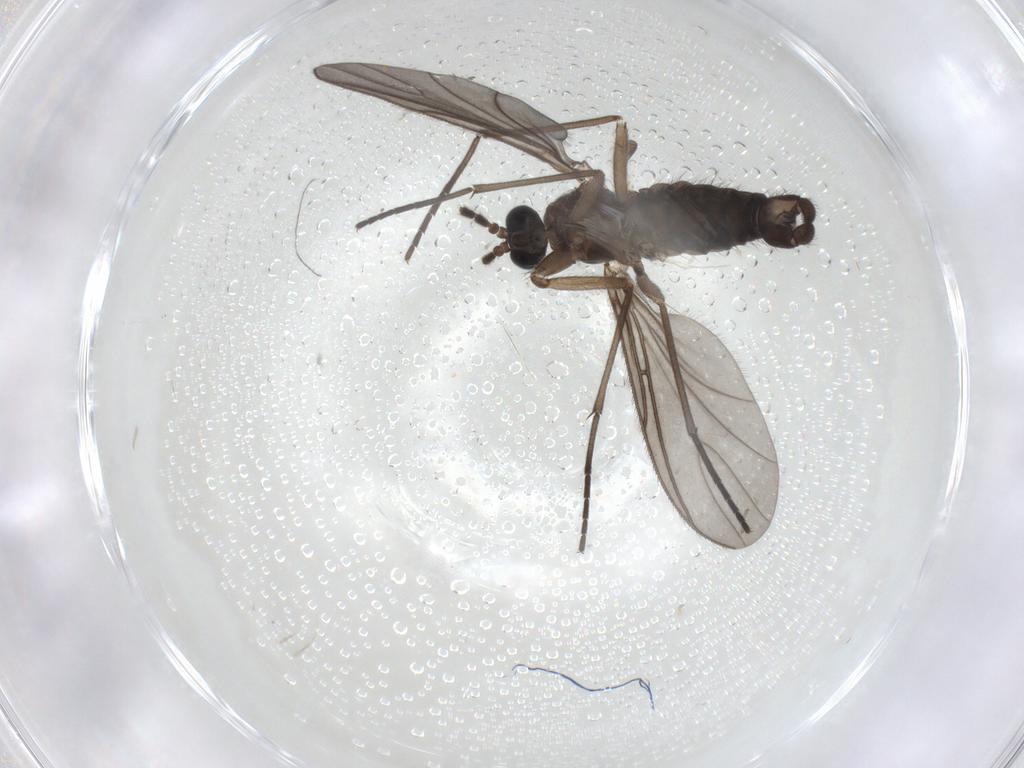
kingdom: Animalia
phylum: Arthropoda
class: Insecta
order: Diptera
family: Sciaridae
